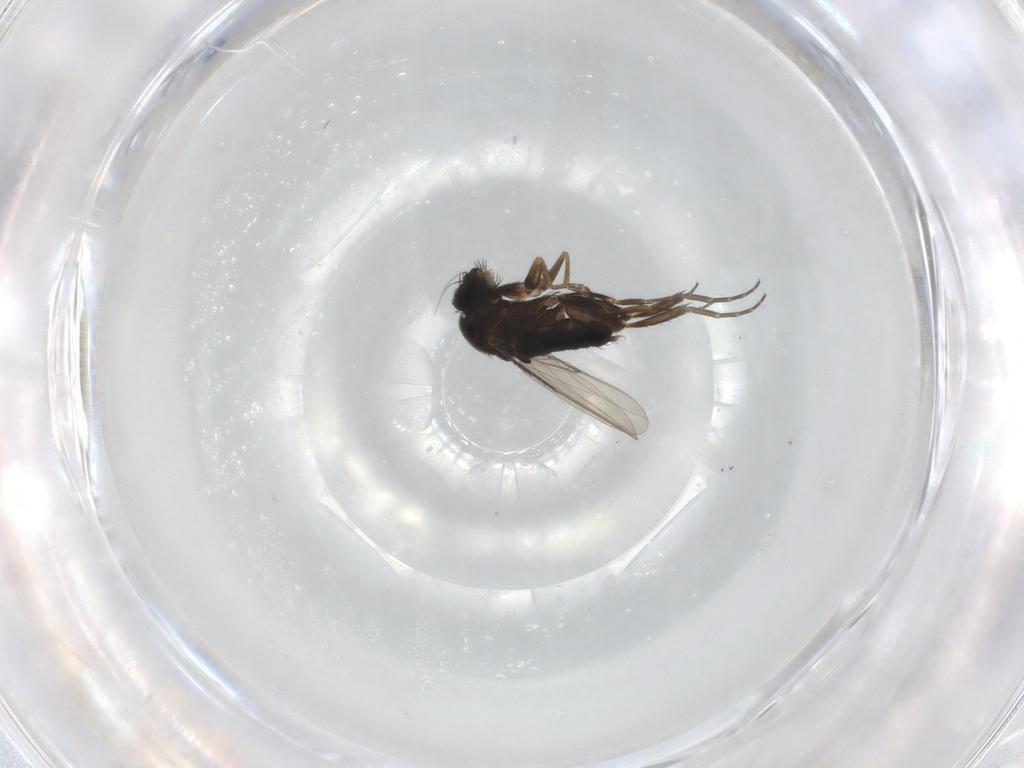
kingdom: Animalia
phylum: Arthropoda
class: Insecta
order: Diptera
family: Phoridae
